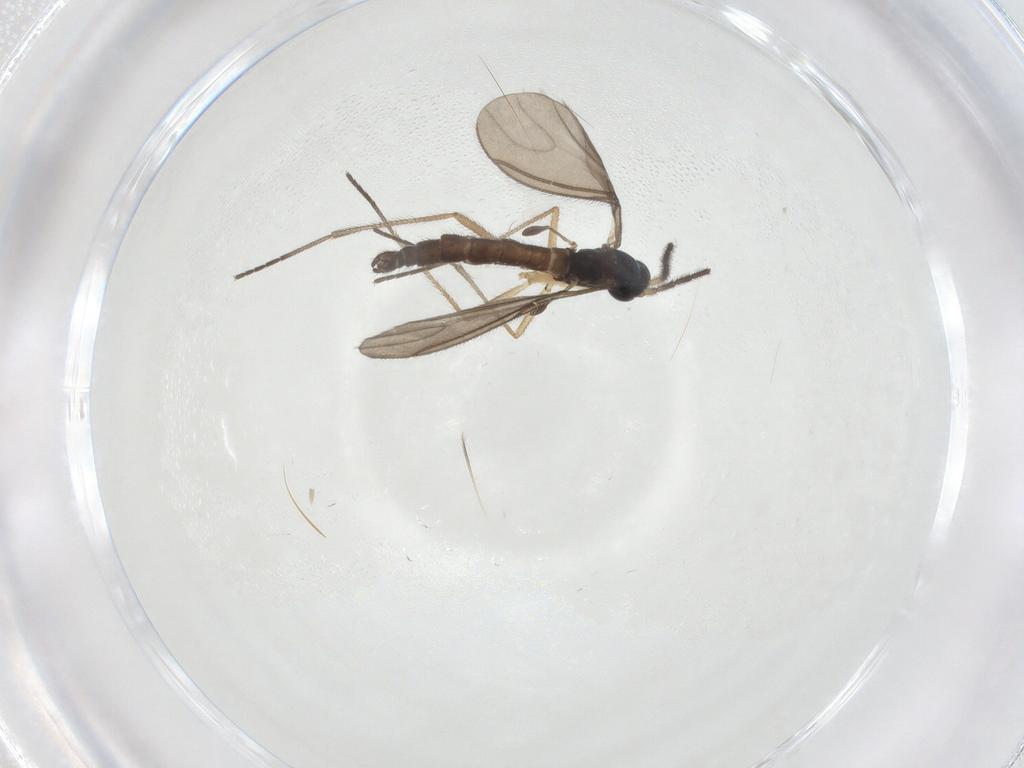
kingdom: Animalia
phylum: Arthropoda
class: Insecta
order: Diptera
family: Sciaridae
